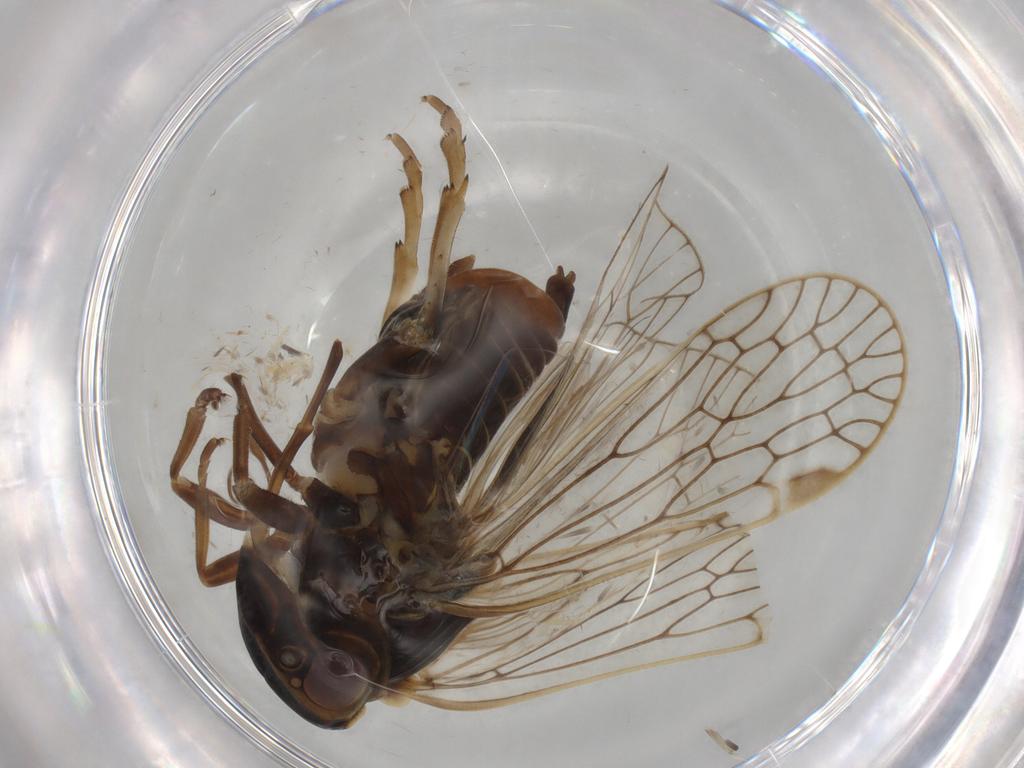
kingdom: Animalia
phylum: Arthropoda
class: Insecta
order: Hemiptera
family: Cixiidae
